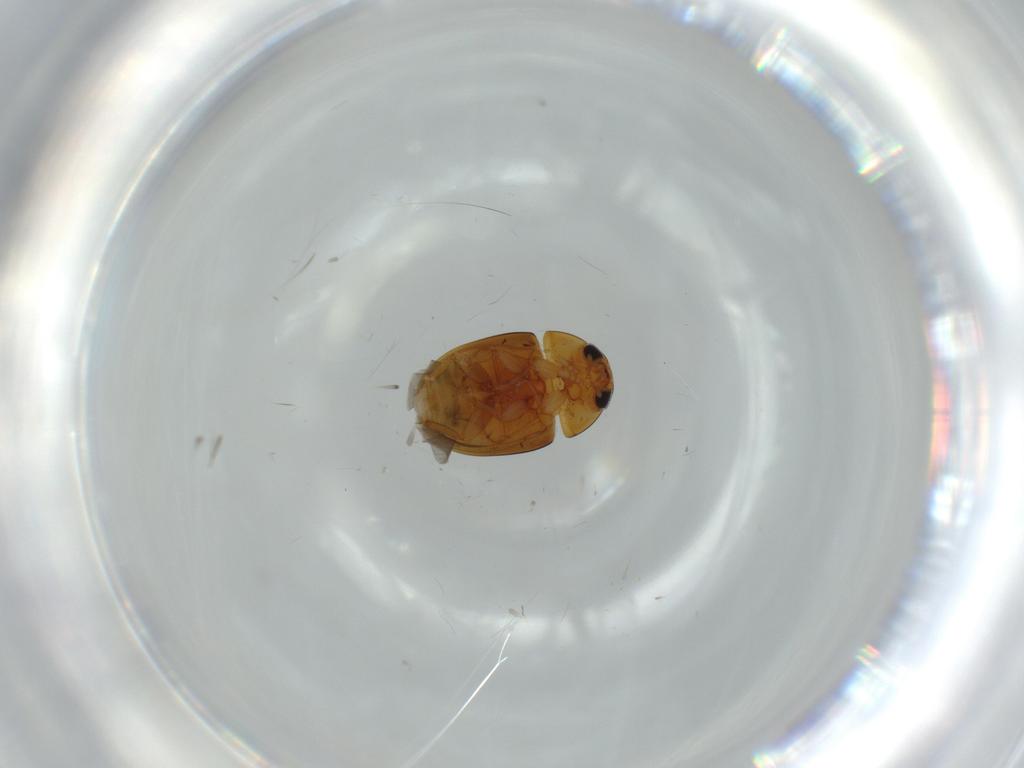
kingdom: Animalia
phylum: Arthropoda
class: Insecta
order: Coleoptera
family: Phalacridae
